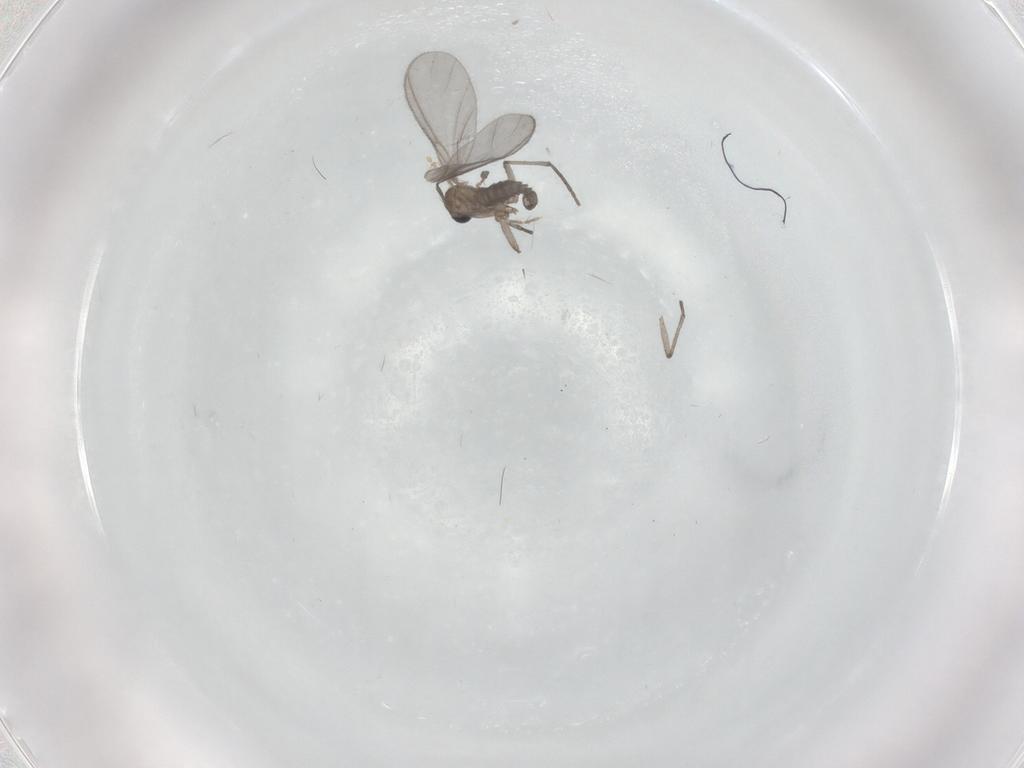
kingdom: Animalia
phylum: Arthropoda
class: Insecta
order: Diptera
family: Sciaridae
